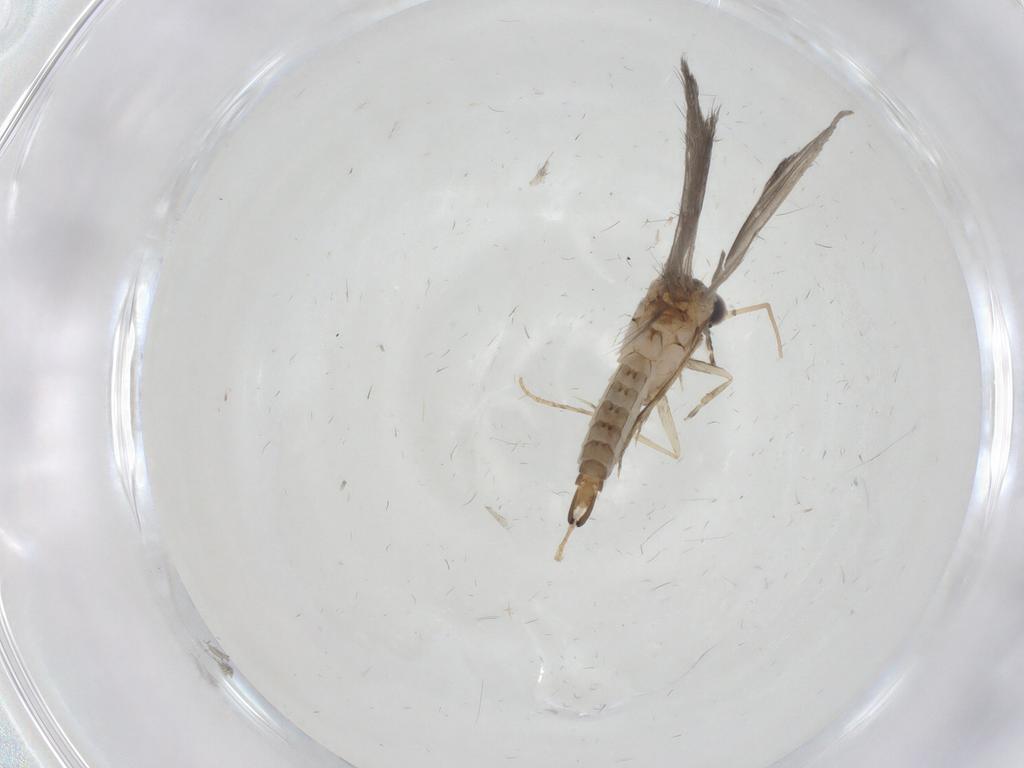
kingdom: Animalia
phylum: Arthropoda
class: Insecta
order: Trichoptera
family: Hydroptilidae
